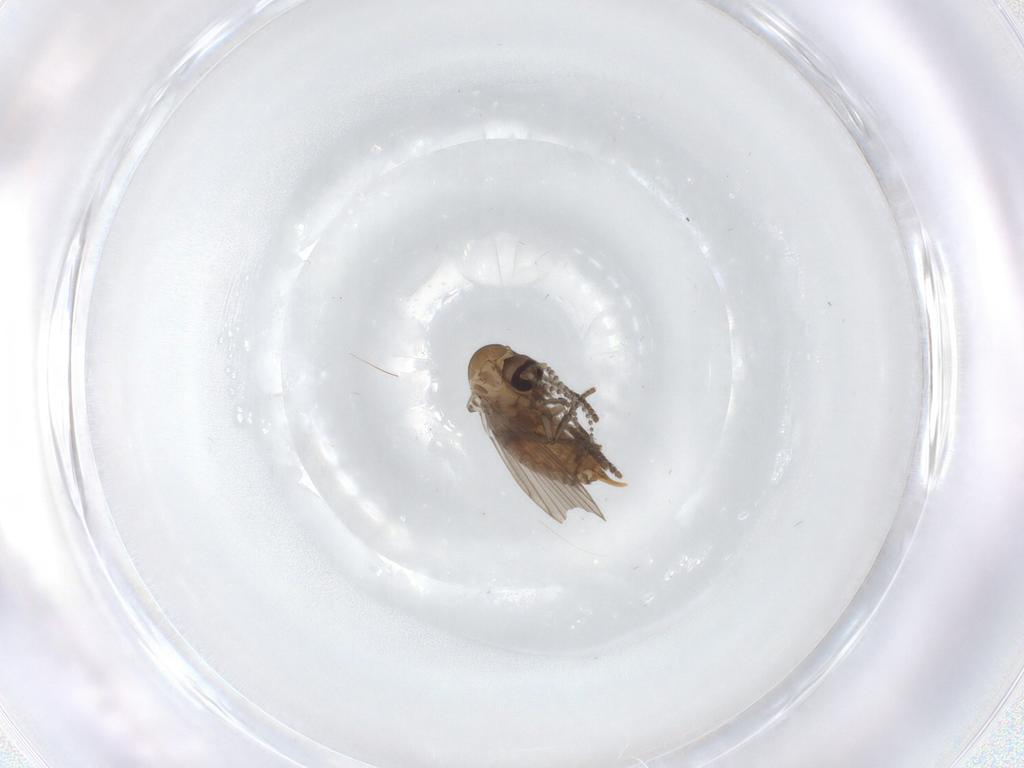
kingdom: Animalia
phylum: Arthropoda
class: Insecta
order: Diptera
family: Psychodidae
